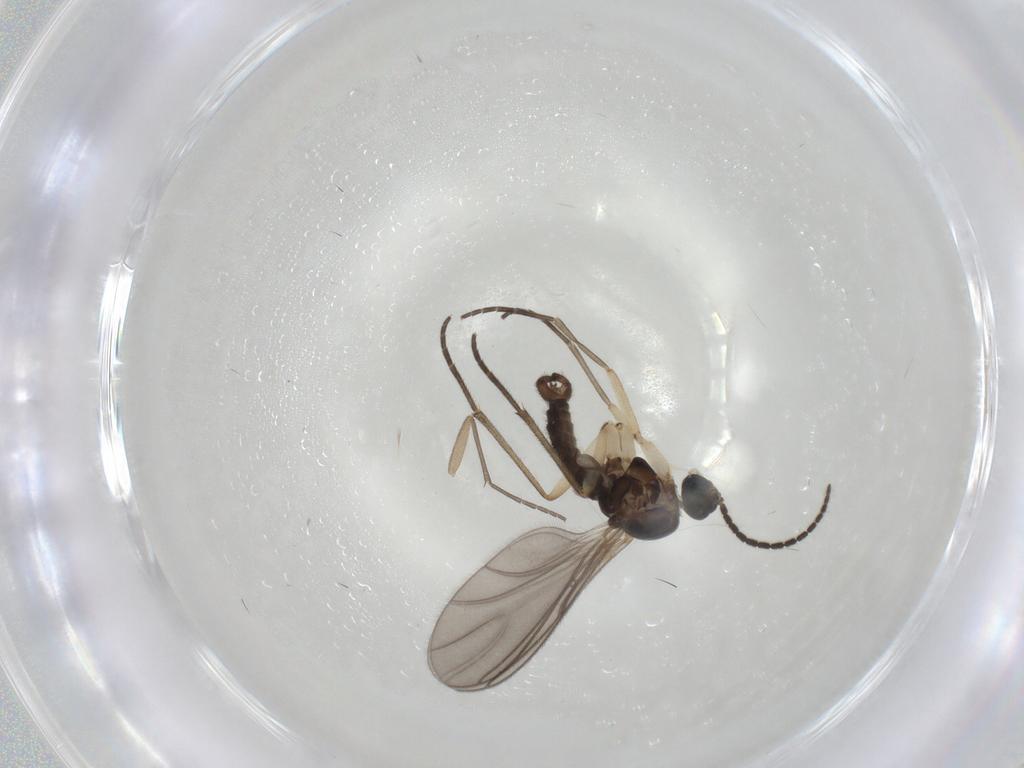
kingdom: Animalia
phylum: Arthropoda
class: Insecta
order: Diptera
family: Sciaridae
